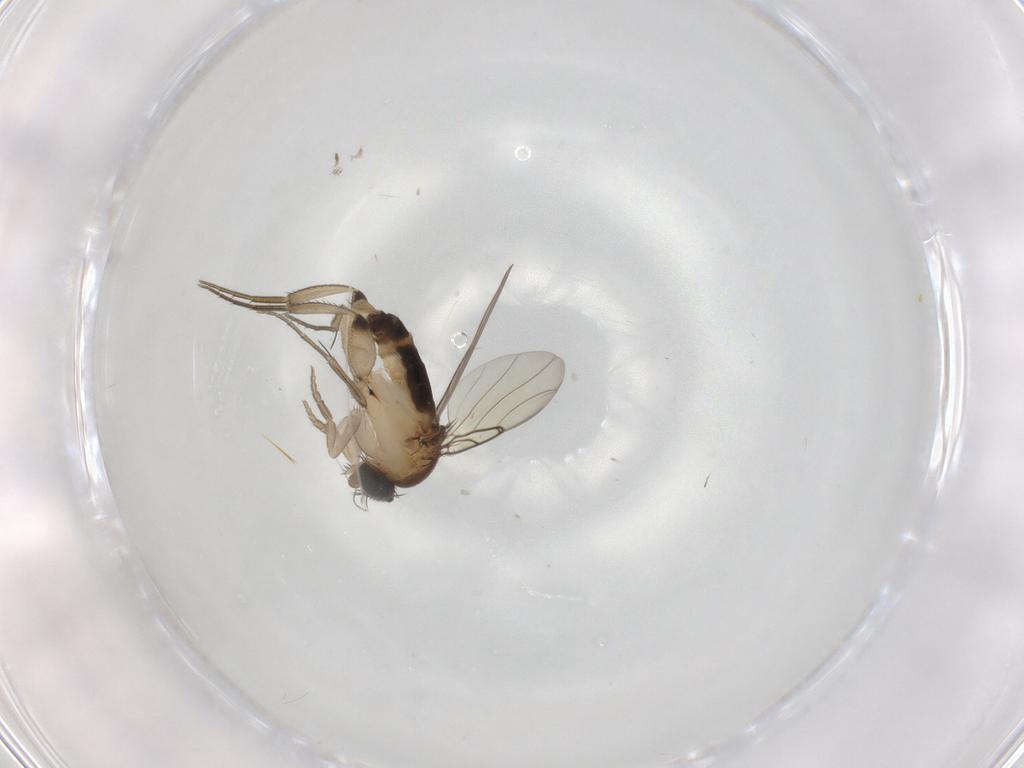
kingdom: Animalia
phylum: Arthropoda
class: Insecta
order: Diptera
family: Phoridae
